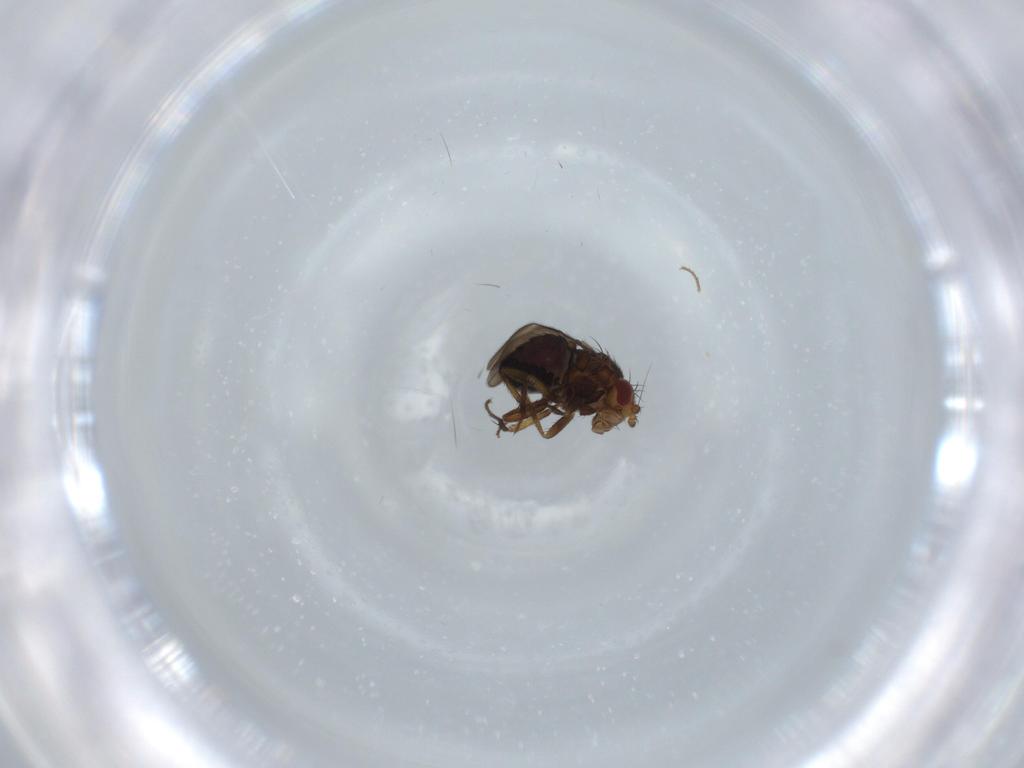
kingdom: Animalia
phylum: Arthropoda
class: Insecta
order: Diptera
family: Sphaeroceridae
